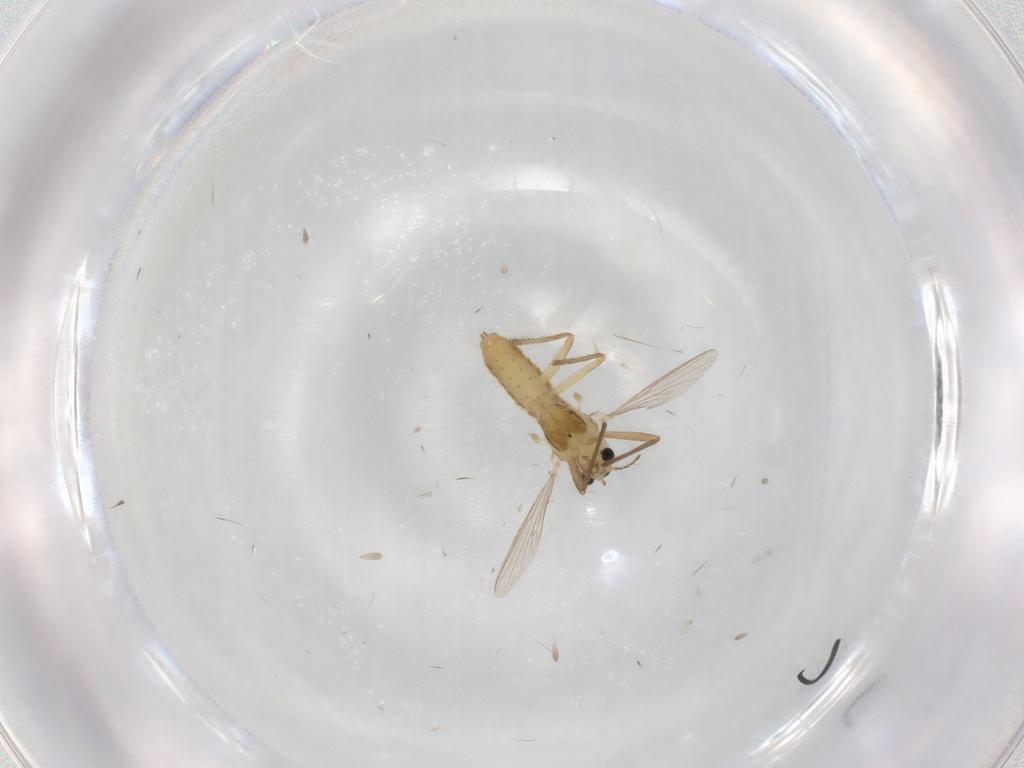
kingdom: Animalia
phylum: Arthropoda
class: Insecta
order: Diptera
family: Chironomidae
